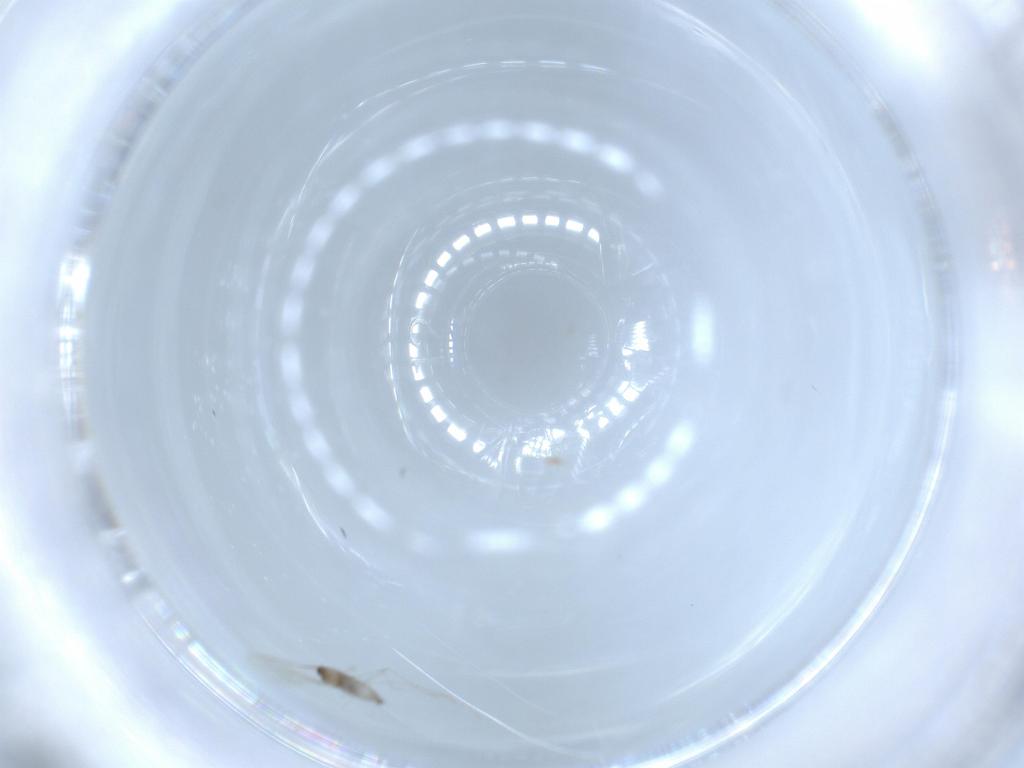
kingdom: Animalia
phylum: Arthropoda
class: Insecta
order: Diptera
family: Cecidomyiidae
